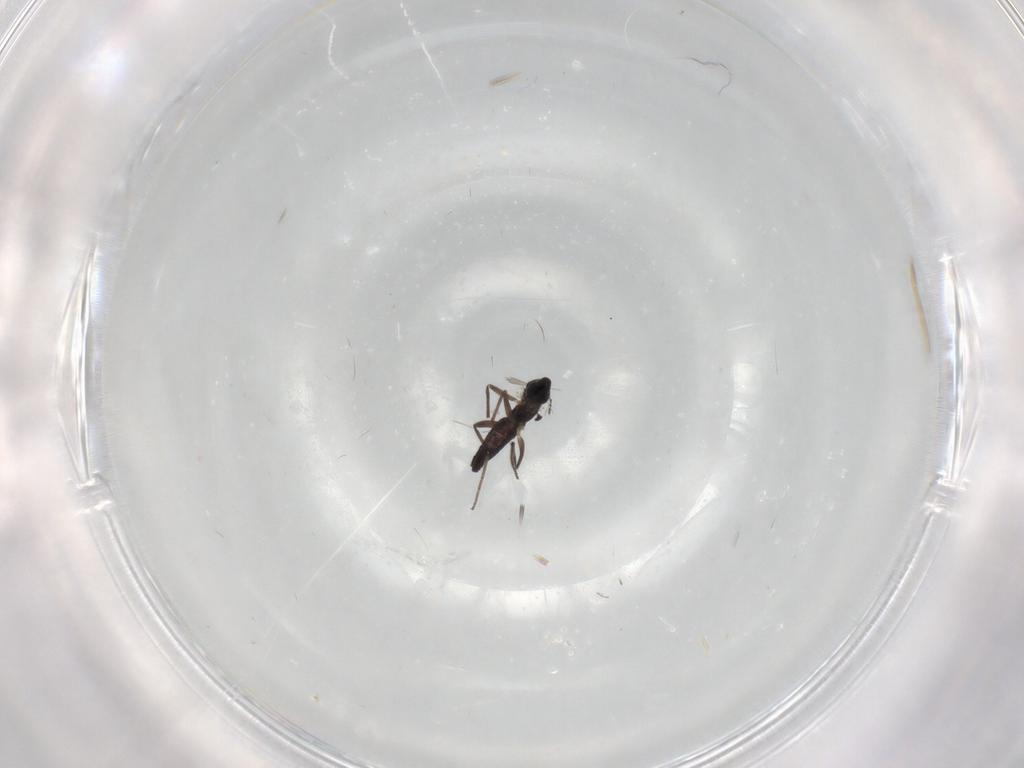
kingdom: Animalia
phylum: Arthropoda
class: Insecta
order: Diptera
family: Chironomidae
